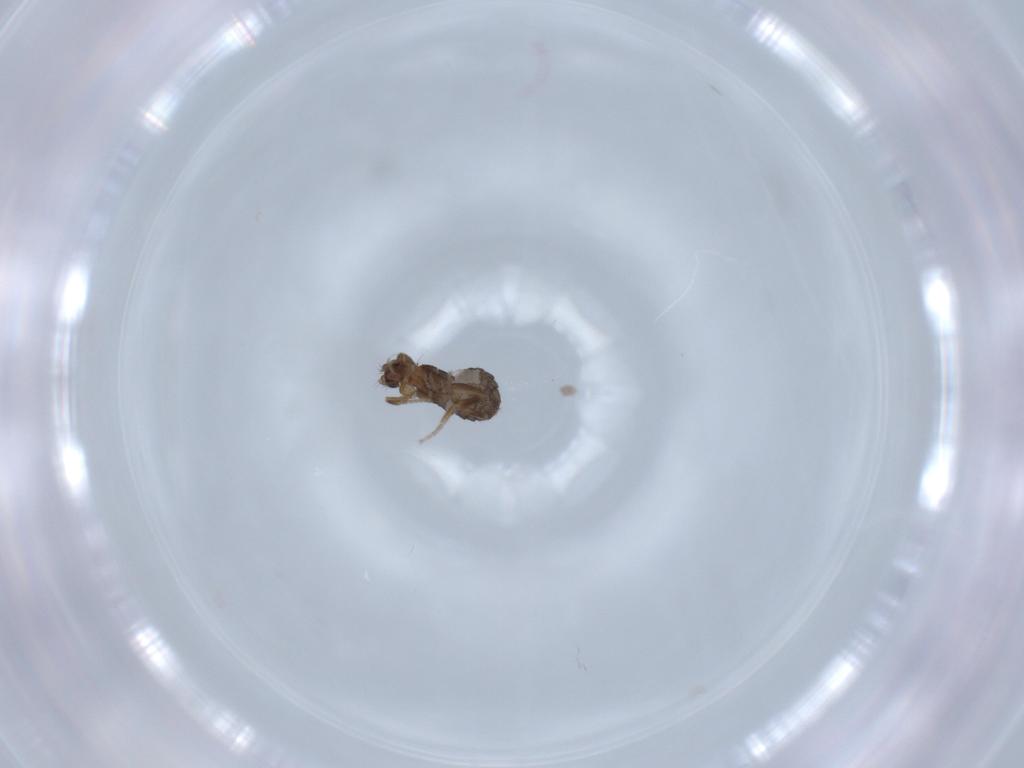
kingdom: Animalia
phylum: Arthropoda
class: Insecta
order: Diptera
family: Phoridae
